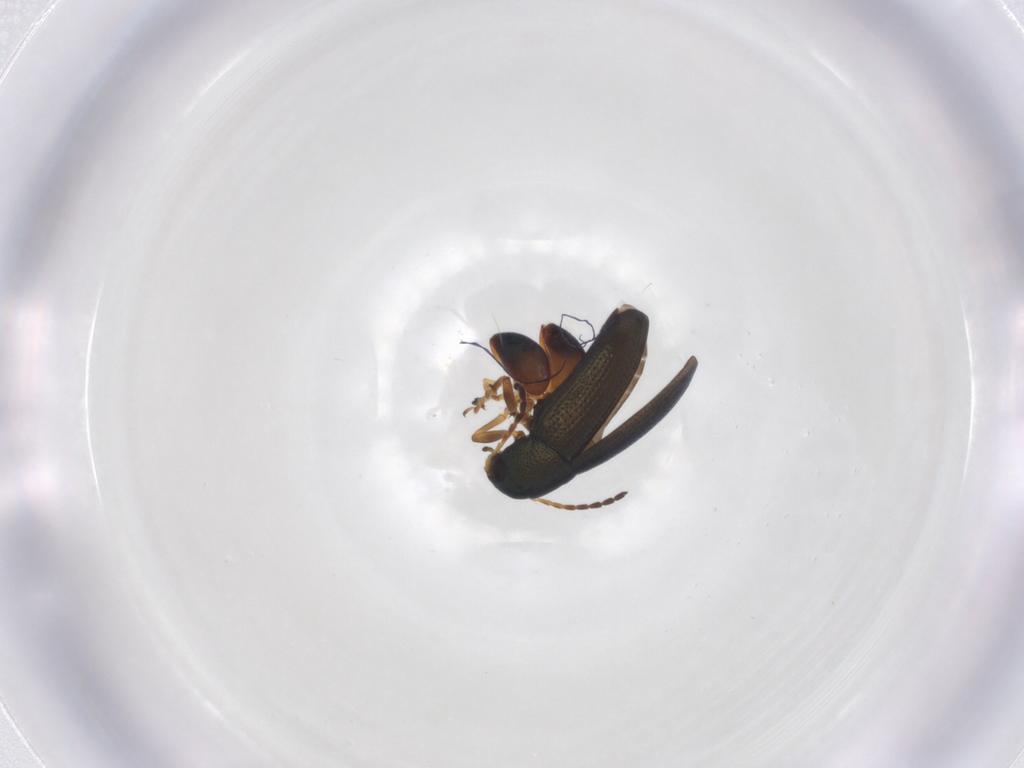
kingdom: Animalia
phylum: Arthropoda
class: Insecta
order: Coleoptera
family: Chrysomelidae
